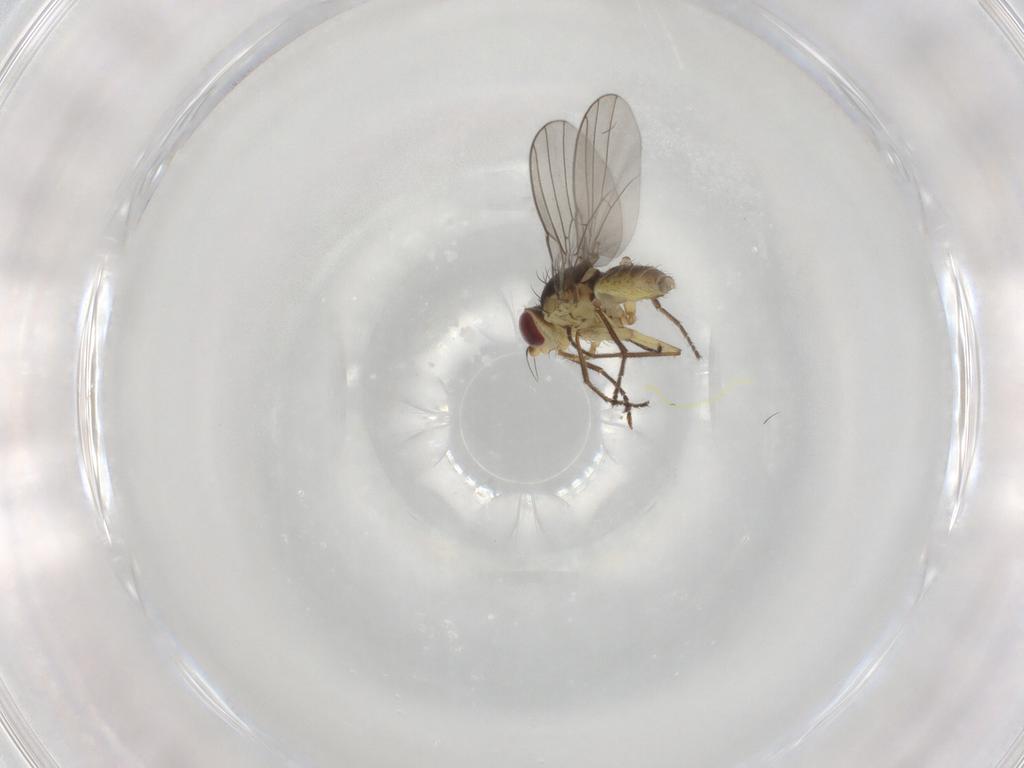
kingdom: Animalia
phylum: Arthropoda
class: Insecta
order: Diptera
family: Agromyzidae
